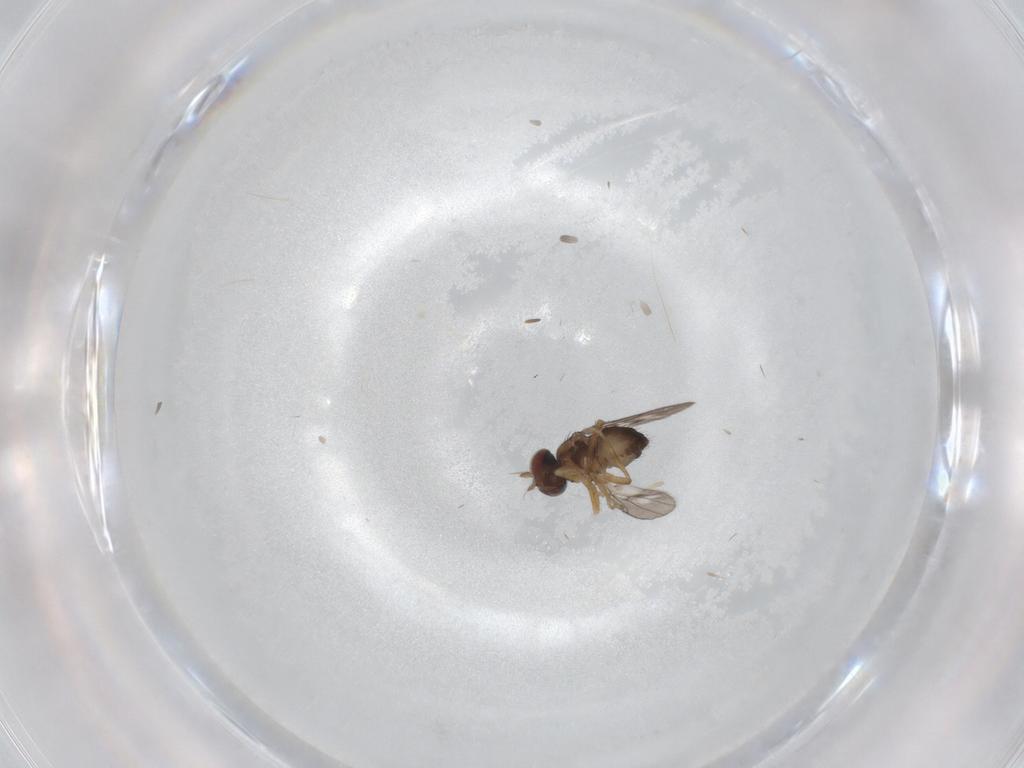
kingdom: Animalia
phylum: Arthropoda
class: Insecta
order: Diptera
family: Ephydridae
